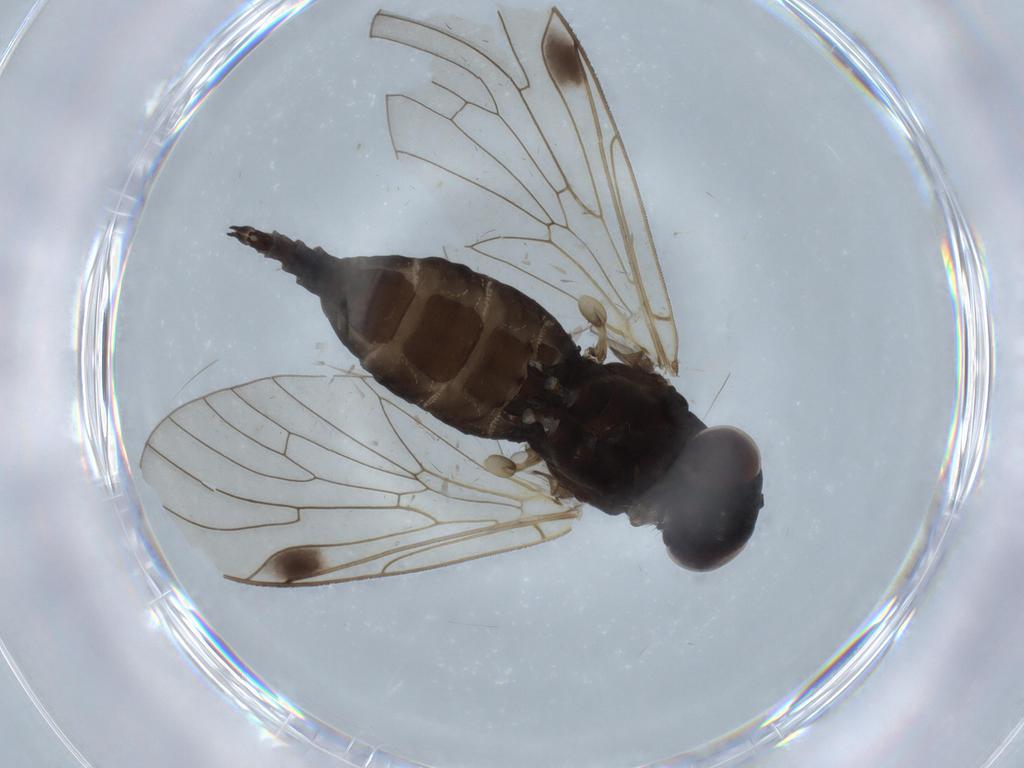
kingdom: Animalia
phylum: Arthropoda
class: Insecta
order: Diptera
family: Chironomidae
